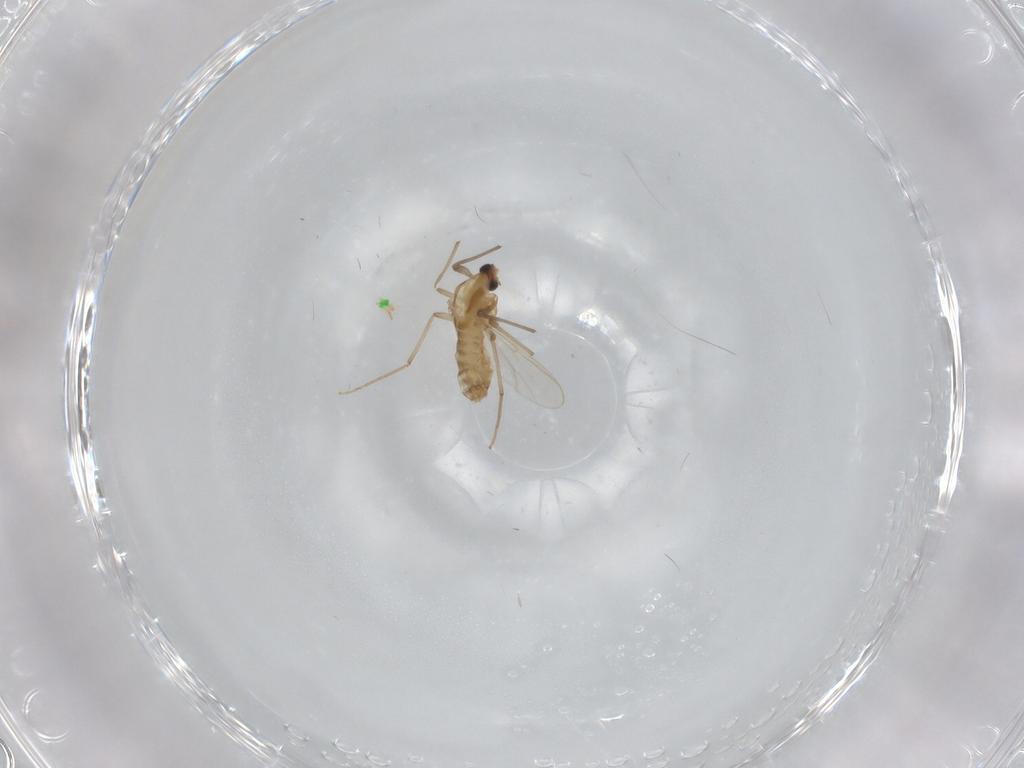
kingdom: Animalia
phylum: Arthropoda
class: Insecta
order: Diptera
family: Chironomidae
